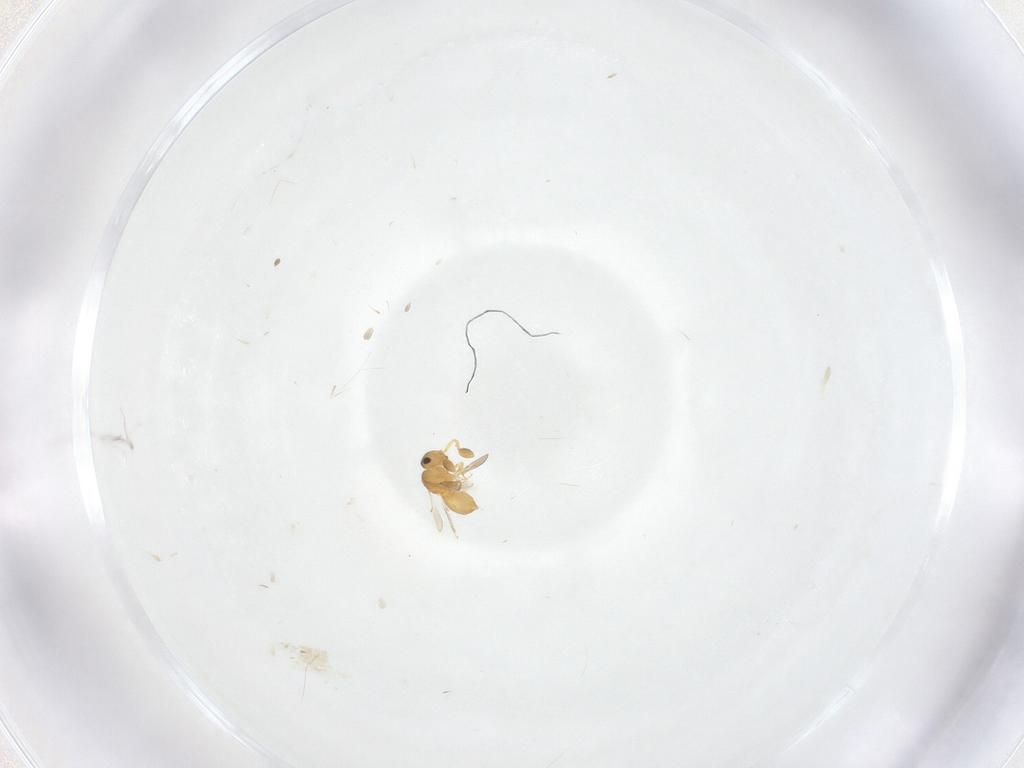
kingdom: Animalia
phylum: Arthropoda
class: Insecta
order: Hymenoptera
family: Scelionidae
